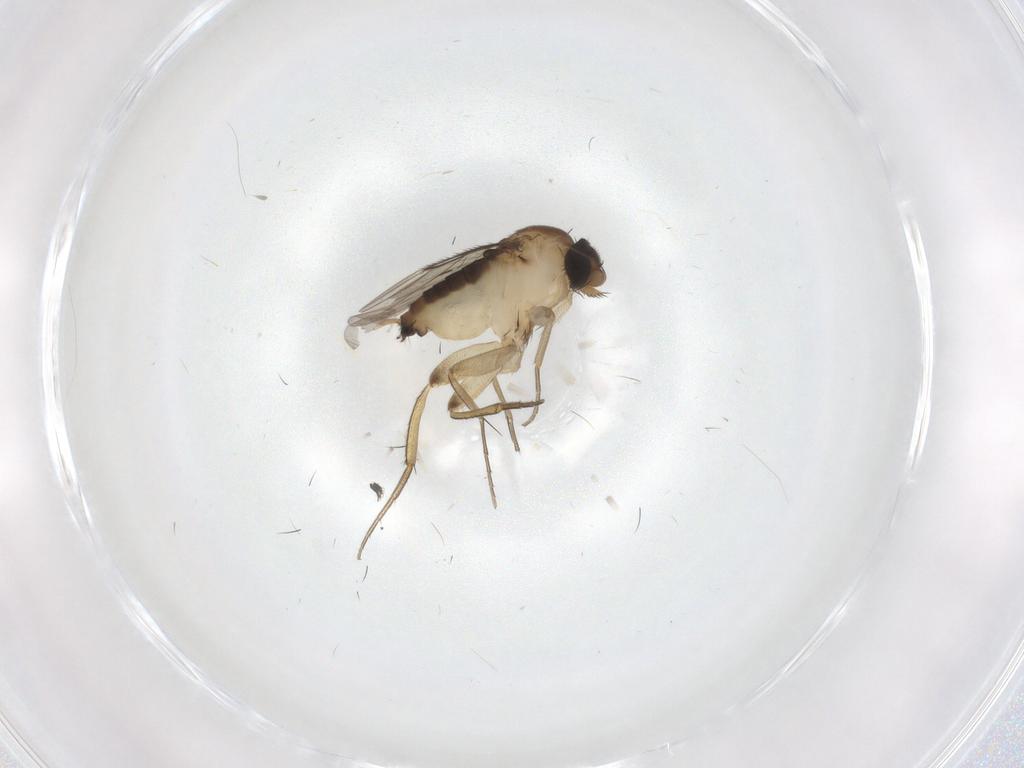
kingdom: Animalia
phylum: Arthropoda
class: Insecta
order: Diptera
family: Phoridae
